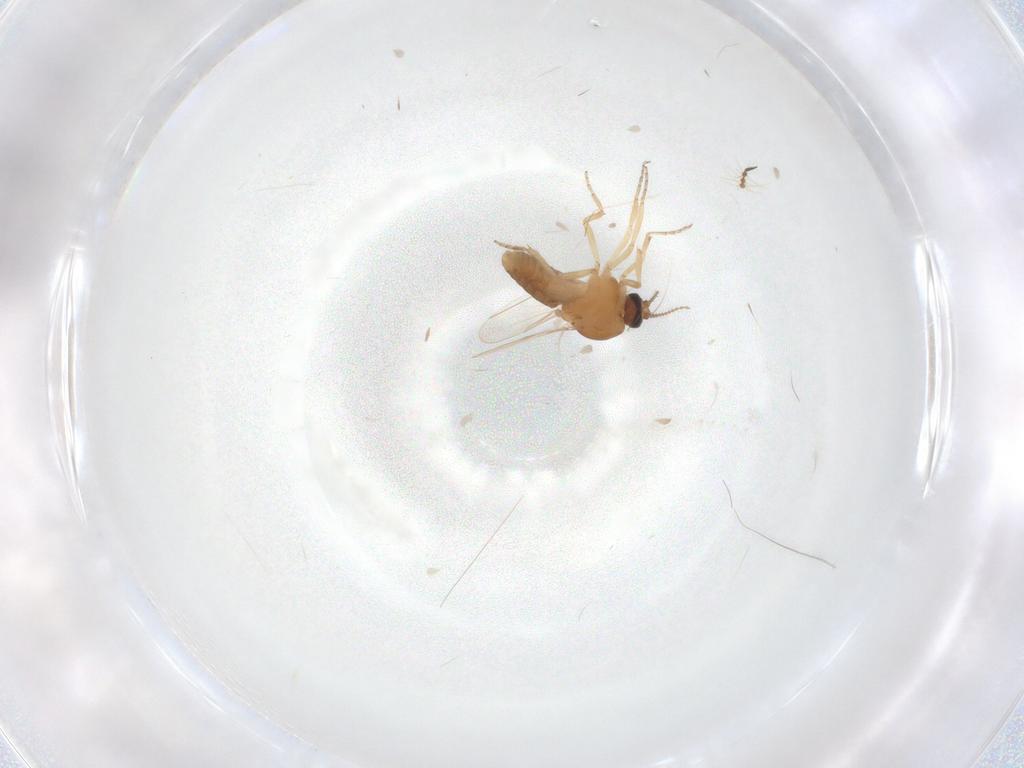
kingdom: Animalia
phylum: Arthropoda
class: Insecta
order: Diptera
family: Ceratopogonidae
